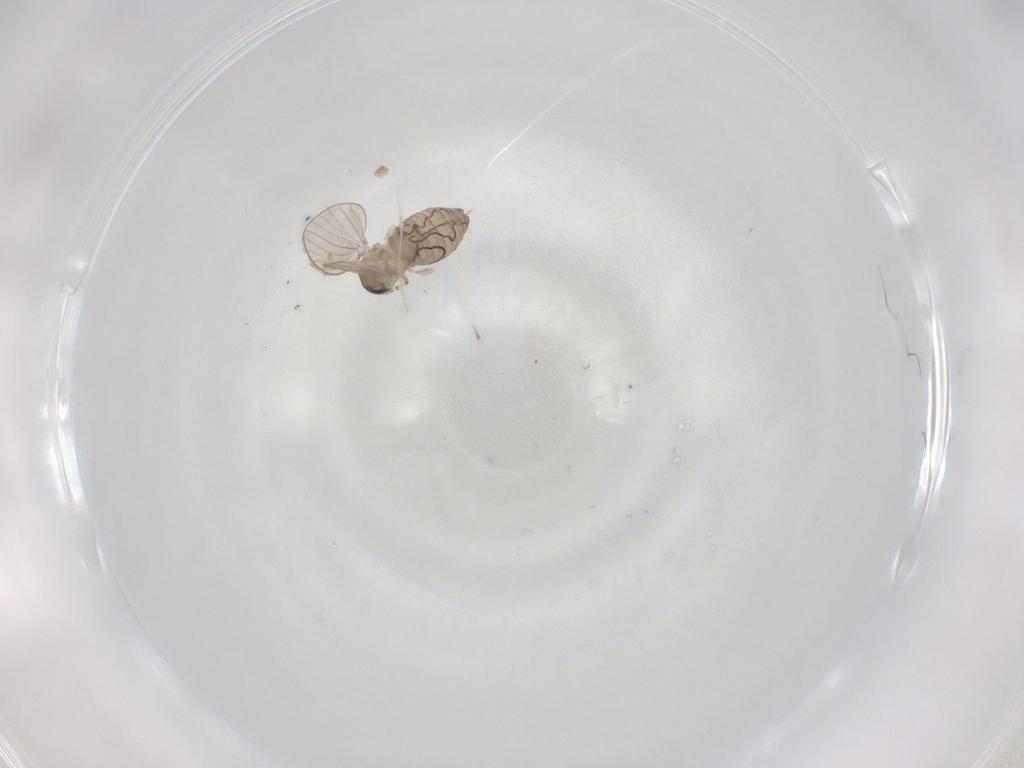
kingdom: Animalia
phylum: Arthropoda
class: Insecta
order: Diptera
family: Psychodidae
